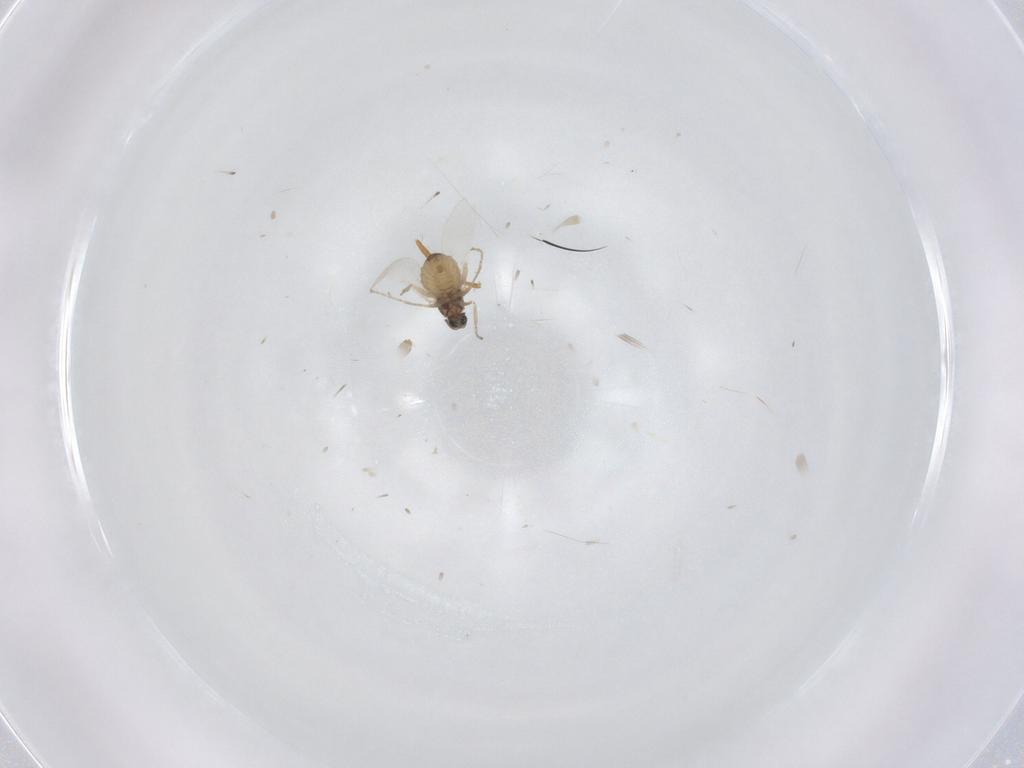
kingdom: Animalia
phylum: Arthropoda
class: Insecta
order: Diptera
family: Cecidomyiidae
